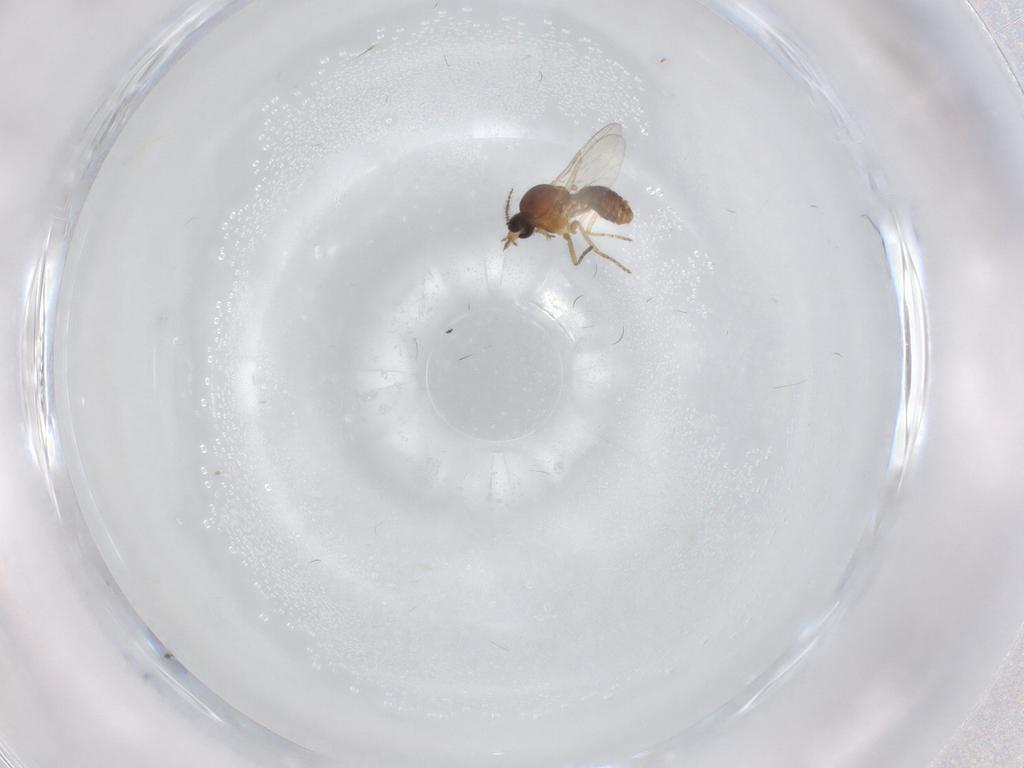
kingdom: Animalia
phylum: Arthropoda
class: Insecta
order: Diptera
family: Ceratopogonidae
